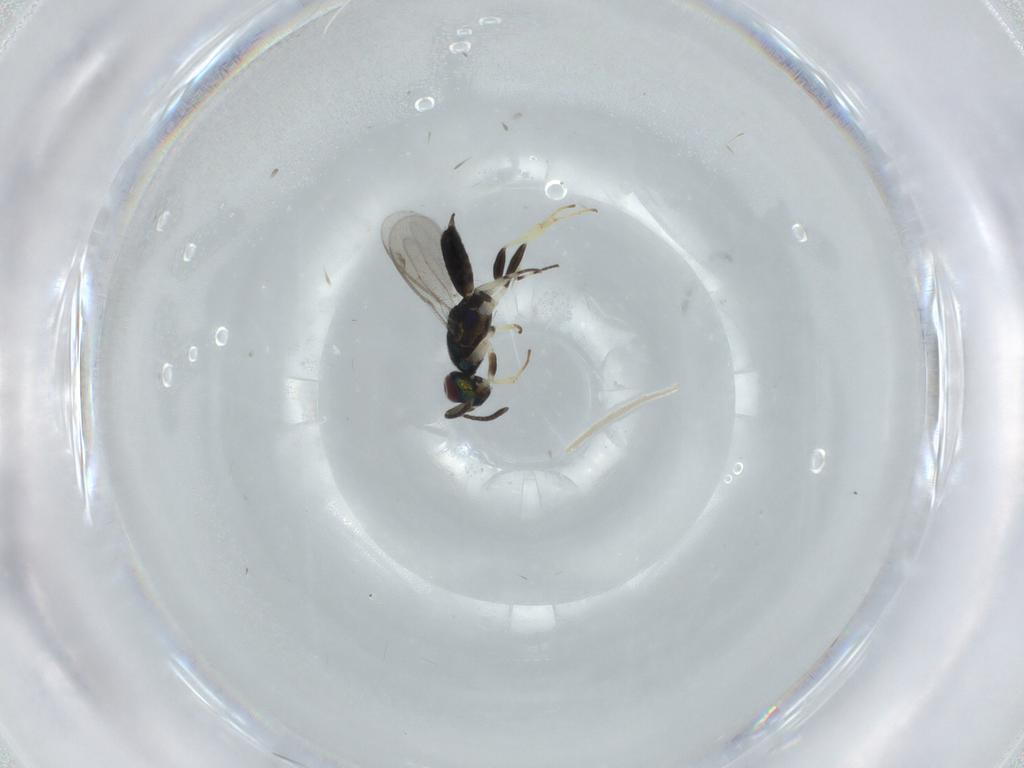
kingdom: Animalia
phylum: Arthropoda
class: Insecta
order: Hymenoptera
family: Eupelmidae
